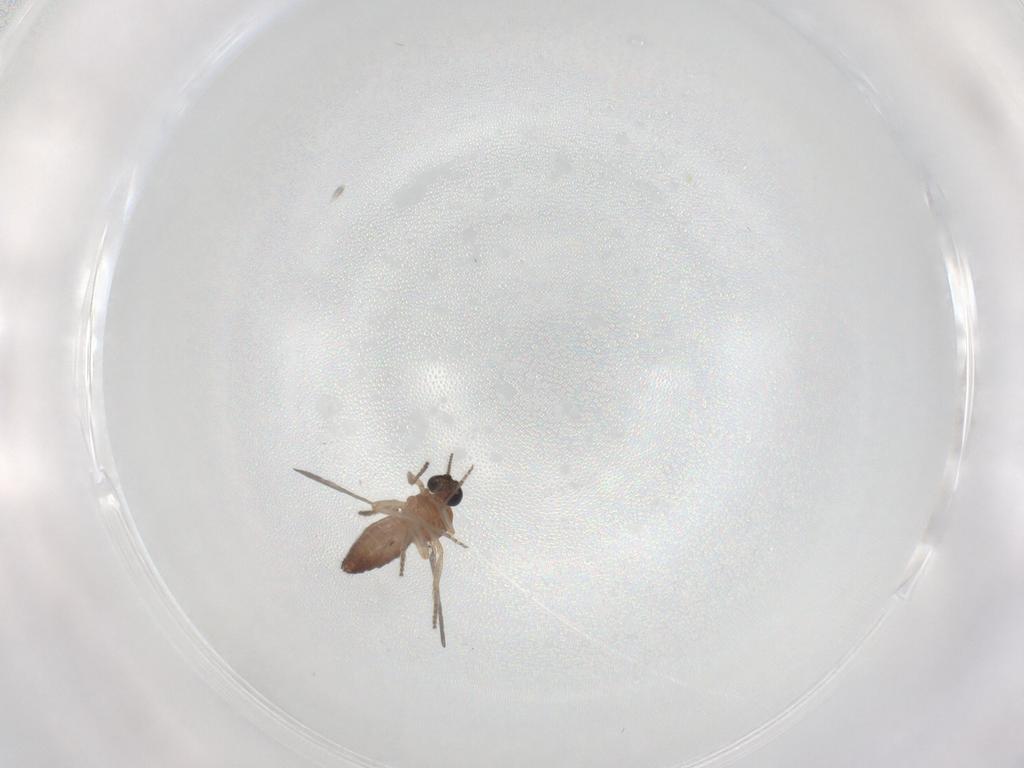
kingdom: Animalia
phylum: Arthropoda
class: Insecta
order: Diptera
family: Ceratopogonidae
